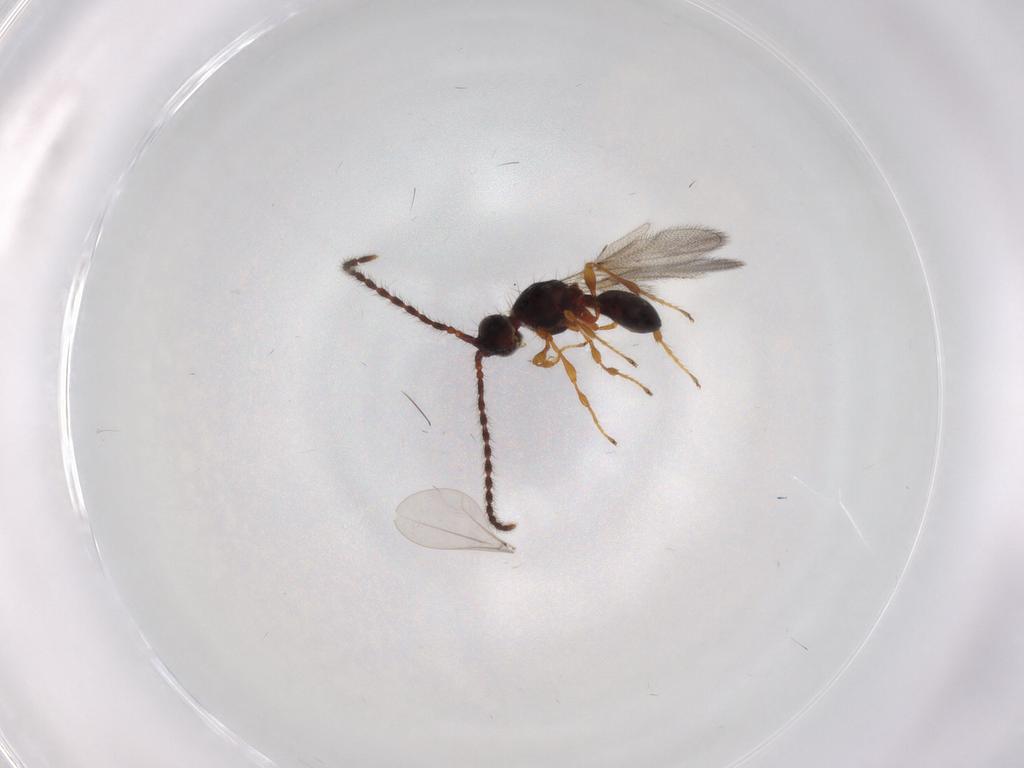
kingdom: Animalia
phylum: Arthropoda
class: Insecta
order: Hymenoptera
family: Diapriidae
